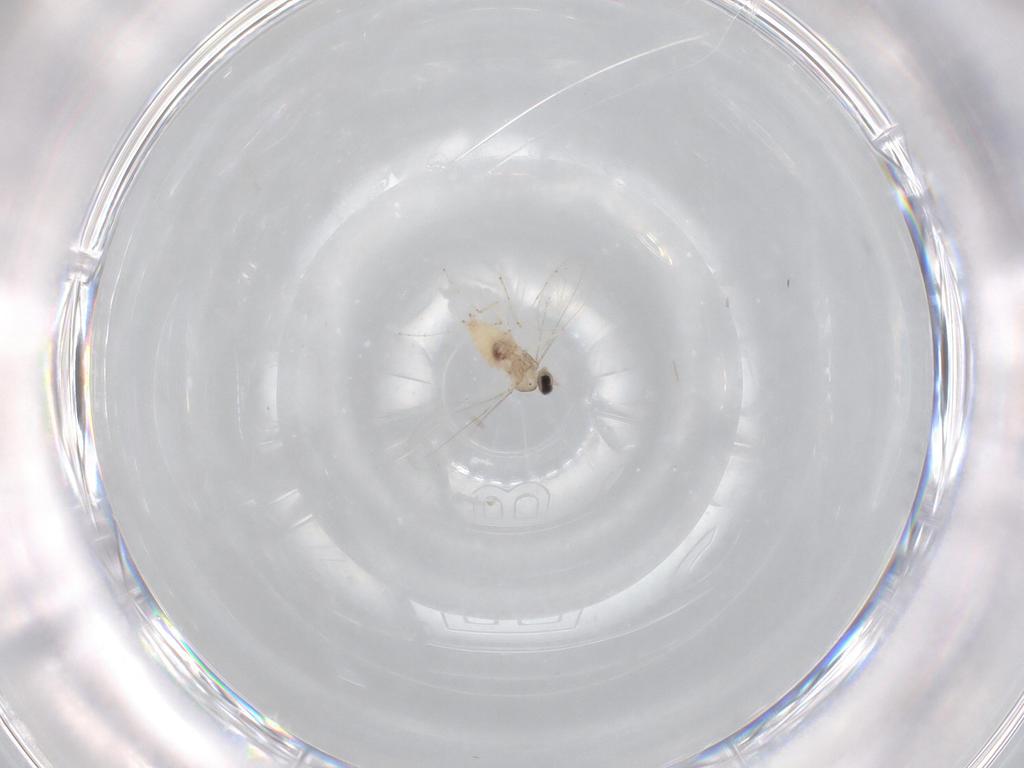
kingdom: Animalia
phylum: Arthropoda
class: Insecta
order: Diptera
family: Cecidomyiidae
